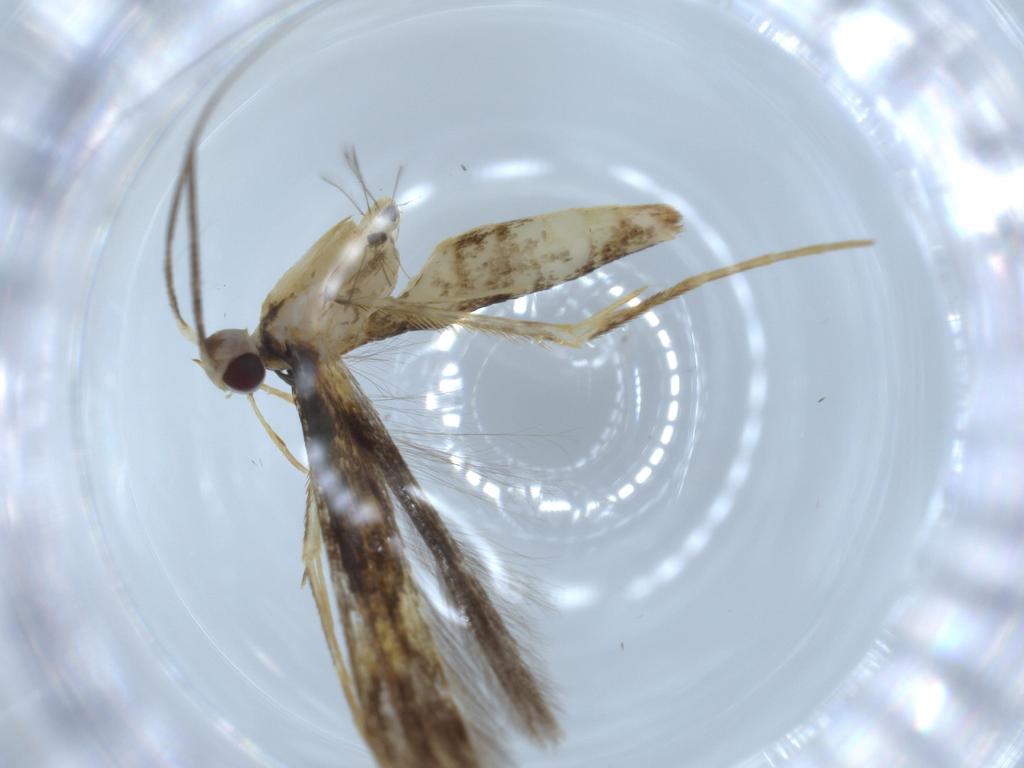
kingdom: Animalia
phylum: Arthropoda
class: Insecta
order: Lepidoptera
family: Gracillariidae
